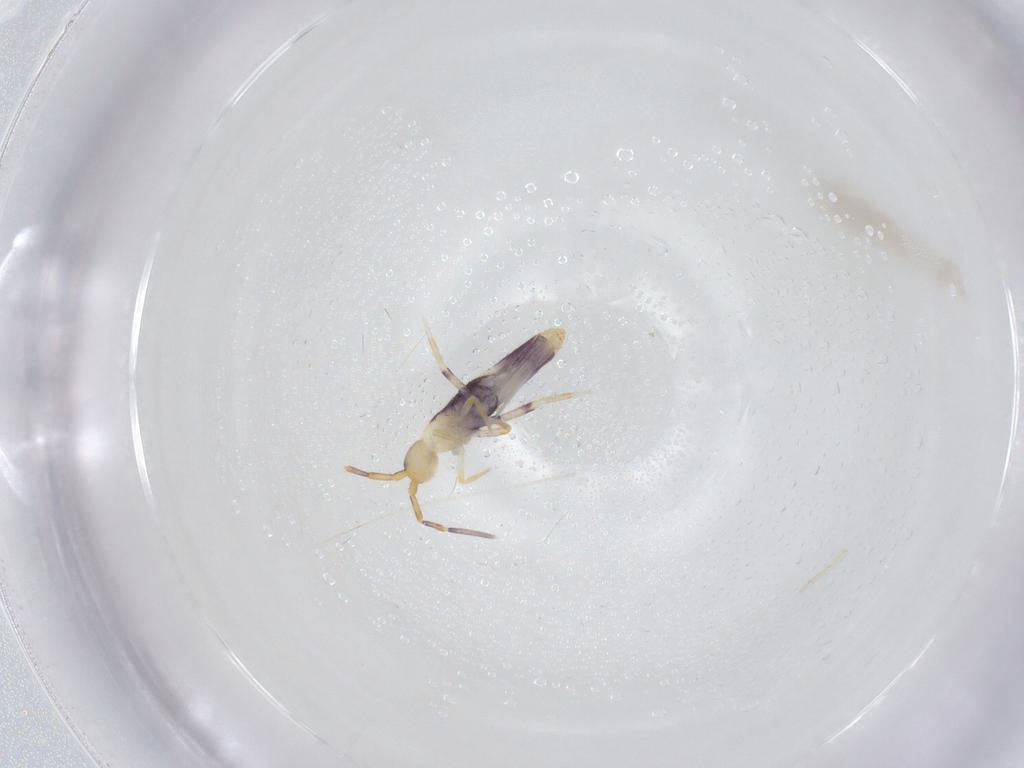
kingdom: Animalia
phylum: Arthropoda
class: Collembola
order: Entomobryomorpha
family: Entomobryidae
